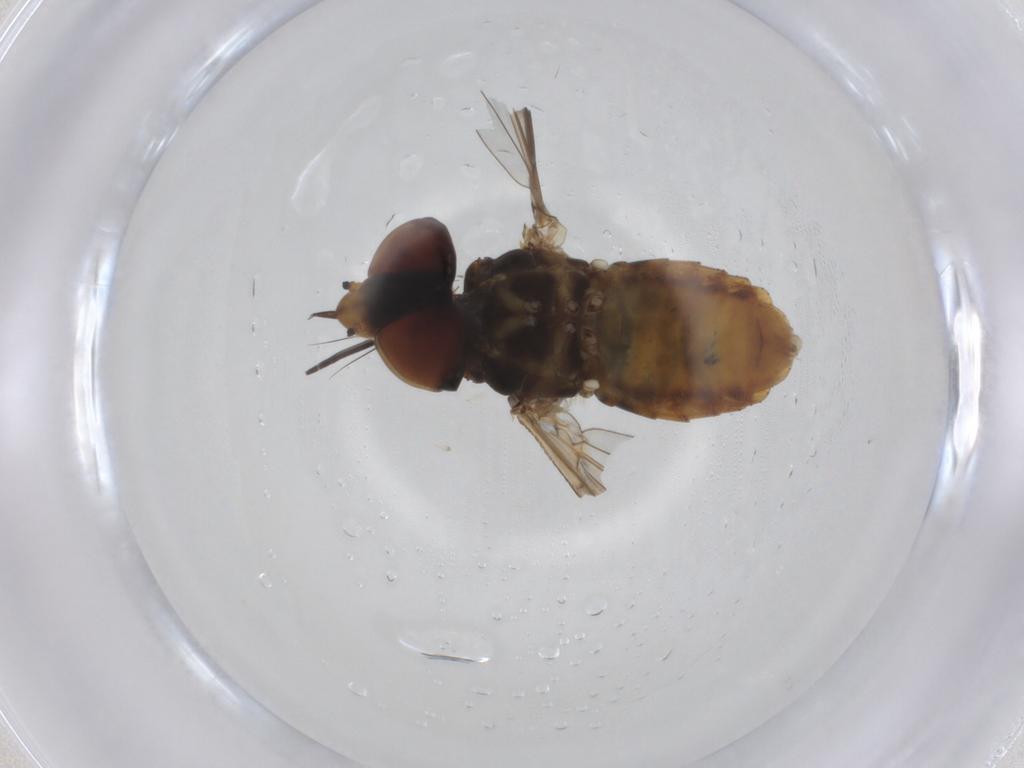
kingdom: Animalia
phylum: Arthropoda
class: Insecta
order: Diptera
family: Bombyliidae
